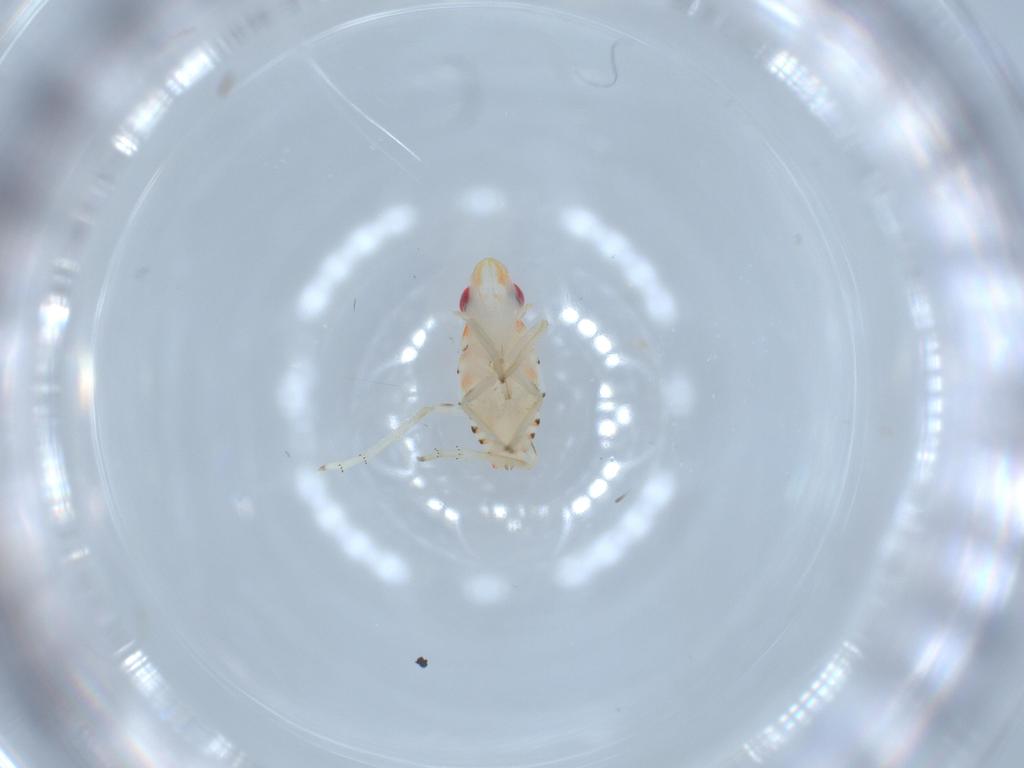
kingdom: Animalia
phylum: Arthropoda
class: Insecta
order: Hemiptera
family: Tropiduchidae
